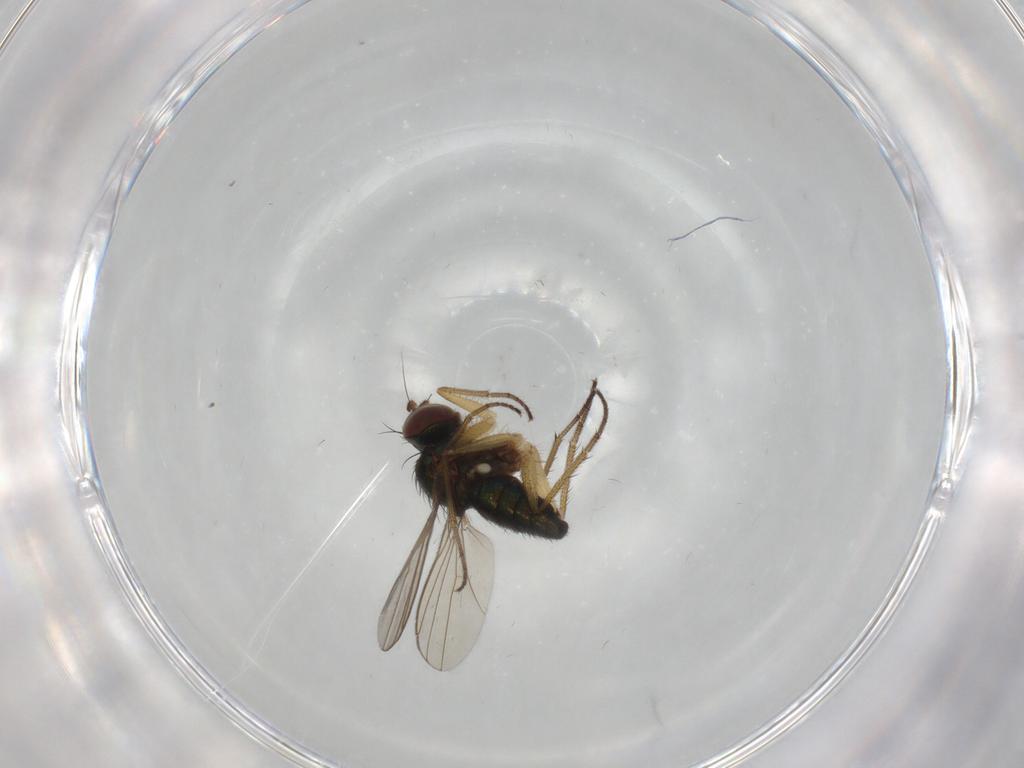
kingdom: Animalia
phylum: Arthropoda
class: Insecta
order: Diptera
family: Dolichopodidae
